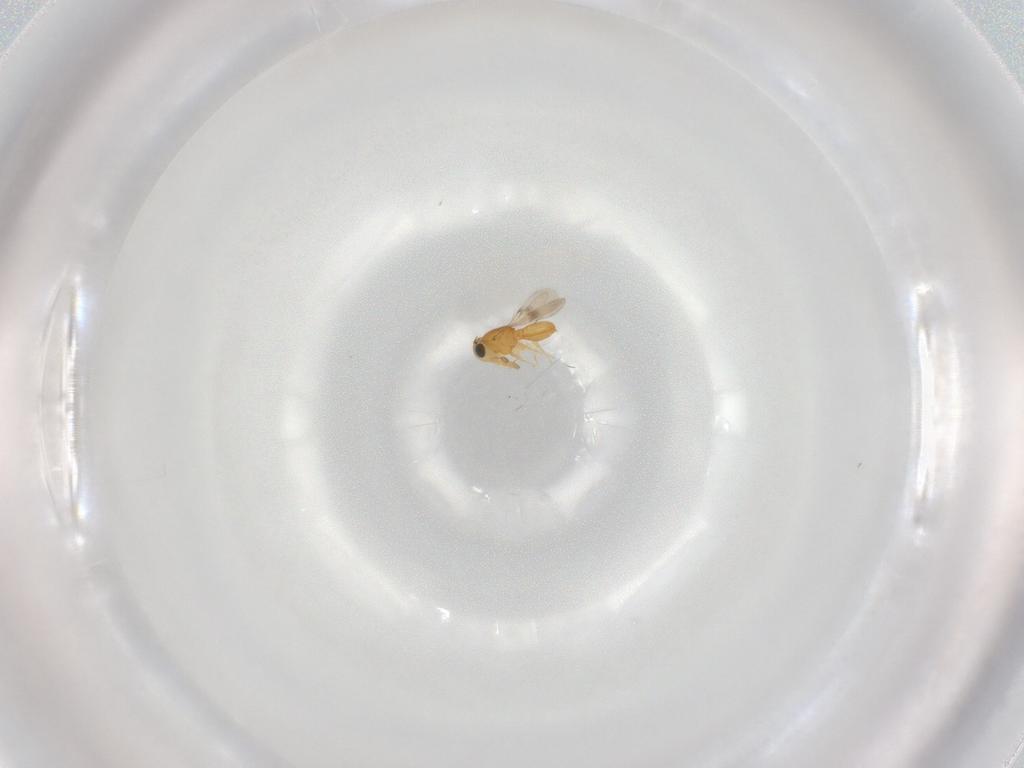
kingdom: Animalia
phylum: Arthropoda
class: Insecta
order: Hymenoptera
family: Scelionidae
